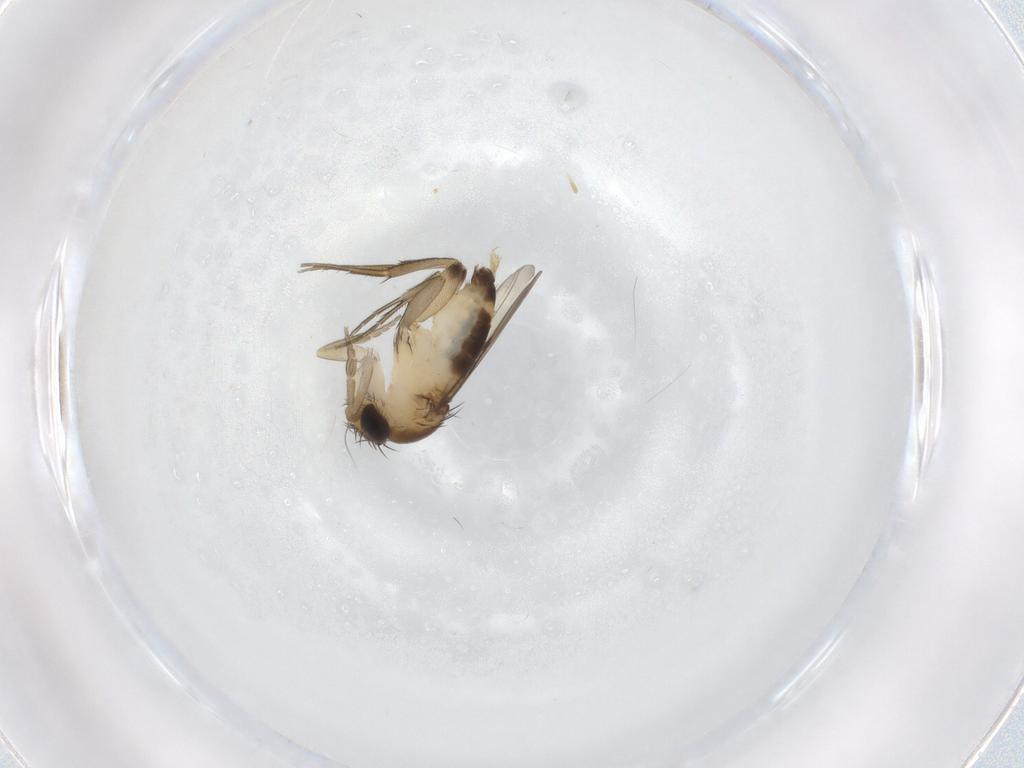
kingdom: Animalia
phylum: Arthropoda
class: Insecta
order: Diptera
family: Phoridae
